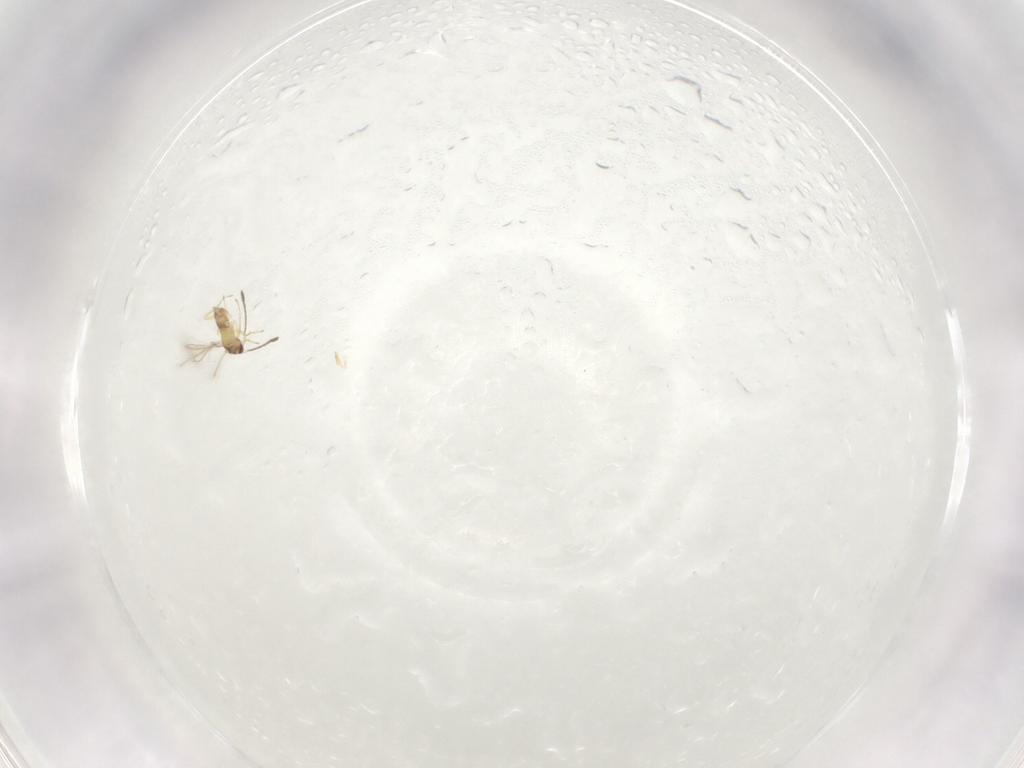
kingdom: Animalia
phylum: Arthropoda
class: Insecta
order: Hymenoptera
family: Mymaridae
